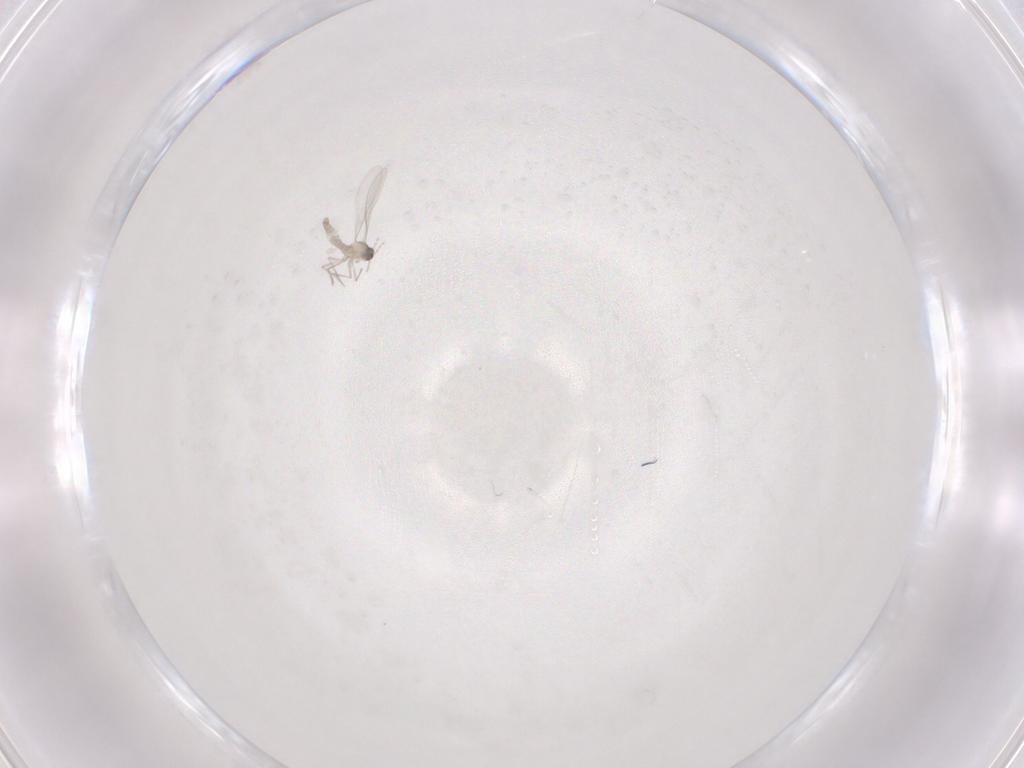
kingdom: Animalia
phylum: Arthropoda
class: Insecta
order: Diptera
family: Cecidomyiidae
